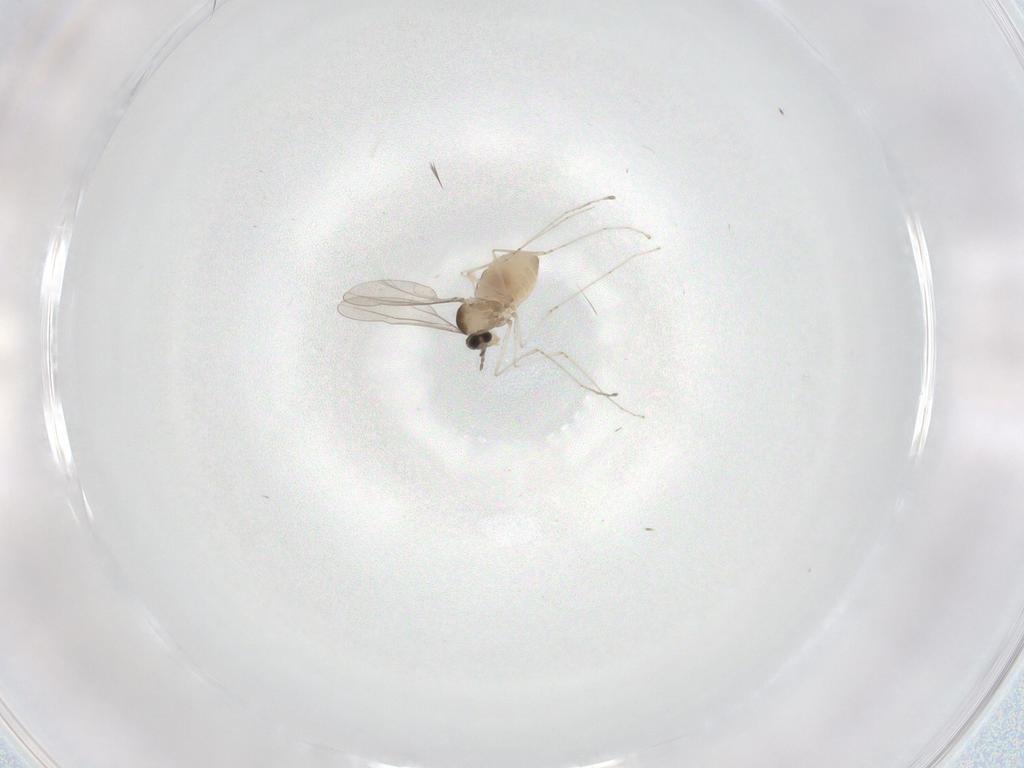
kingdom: Animalia
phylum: Arthropoda
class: Insecta
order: Diptera
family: Cecidomyiidae
